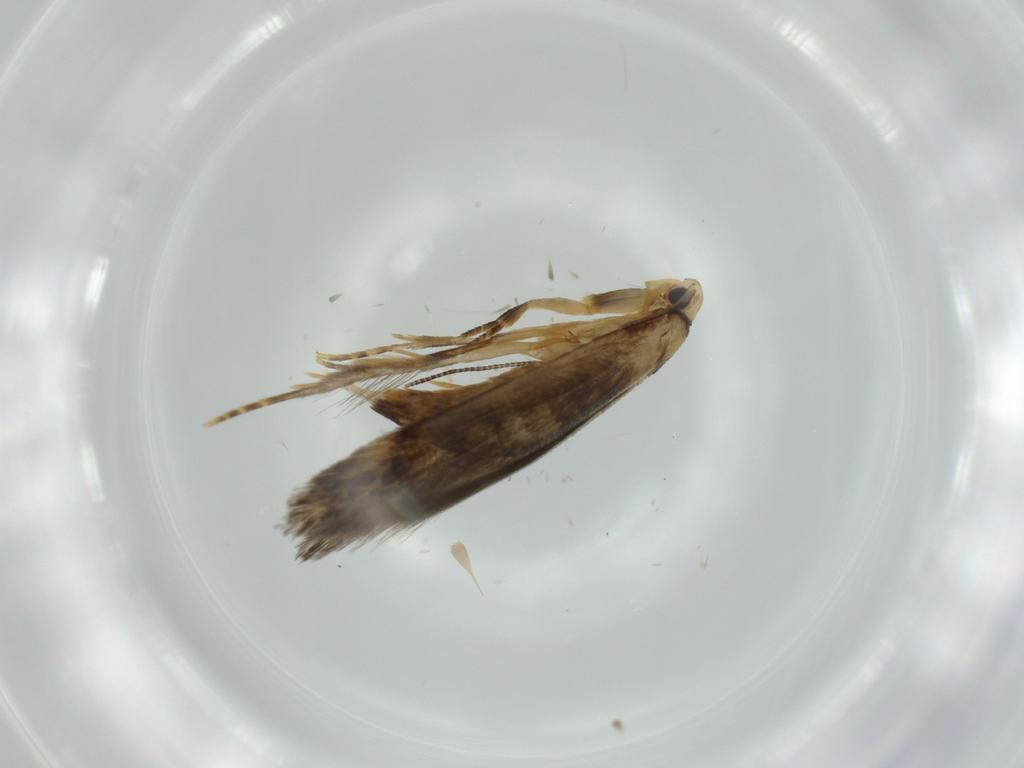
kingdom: Animalia
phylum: Arthropoda
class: Insecta
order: Lepidoptera
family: Tineidae
